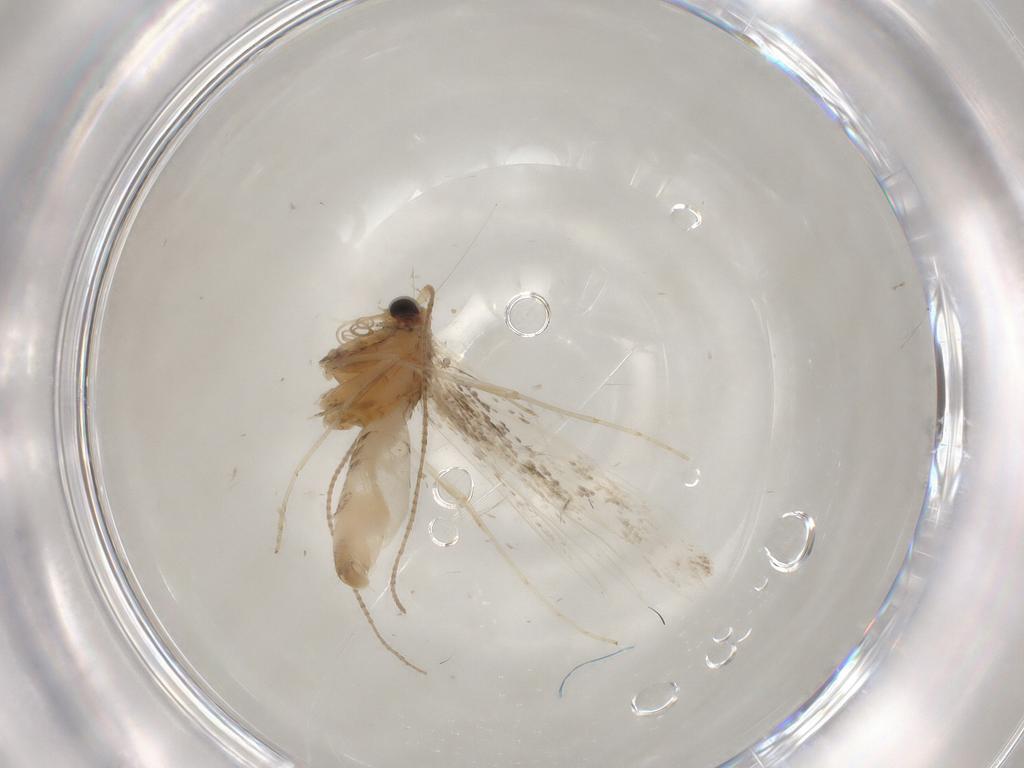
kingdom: Animalia
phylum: Arthropoda
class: Insecta
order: Lepidoptera
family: Gracillariidae
